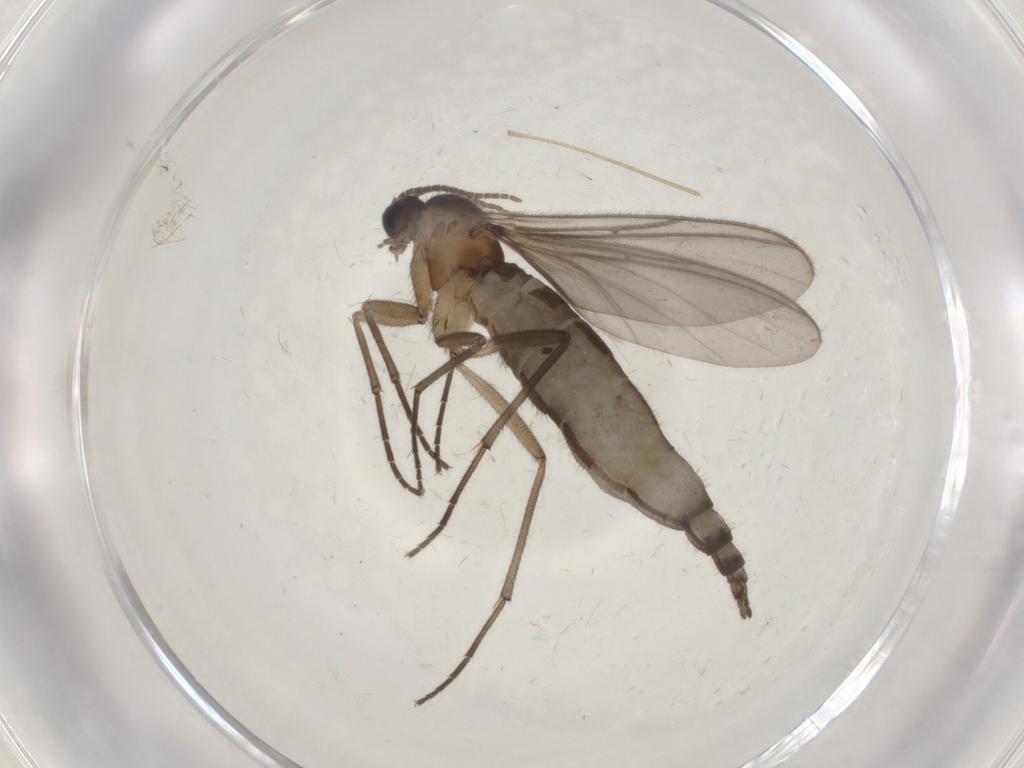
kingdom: Animalia
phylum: Arthropoda
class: Insecta
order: Diptera
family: Limoniidae
